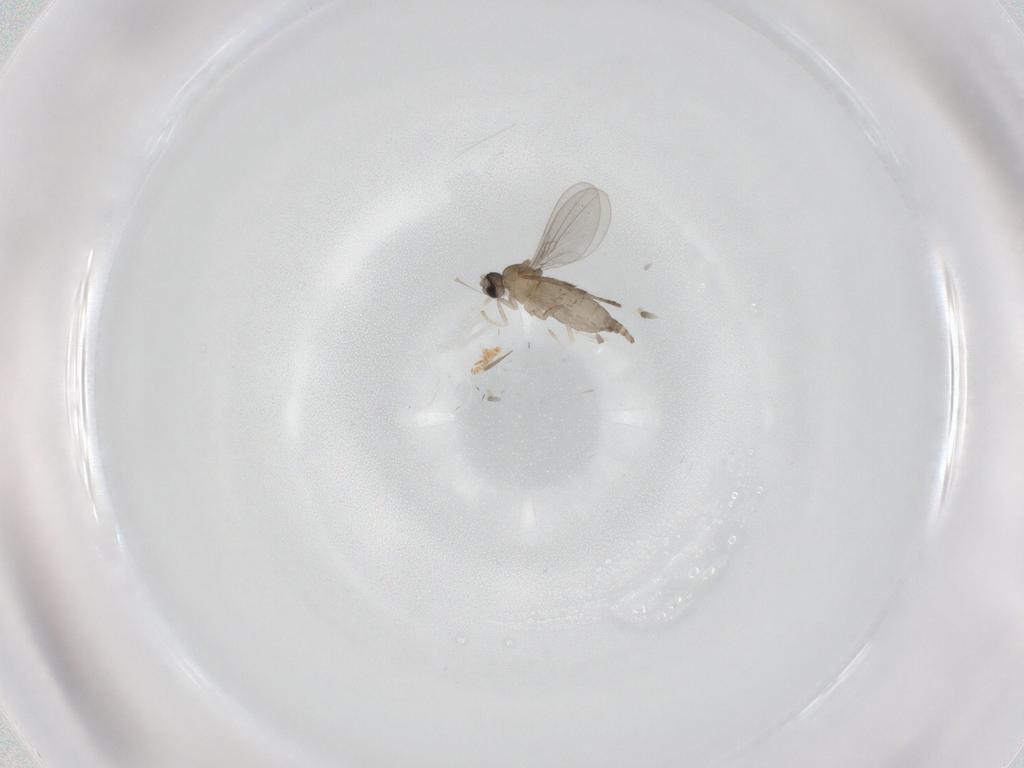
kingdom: Animalia
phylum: Arthropoda
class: Insecta
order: Diptera
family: Cecidomyiidae
